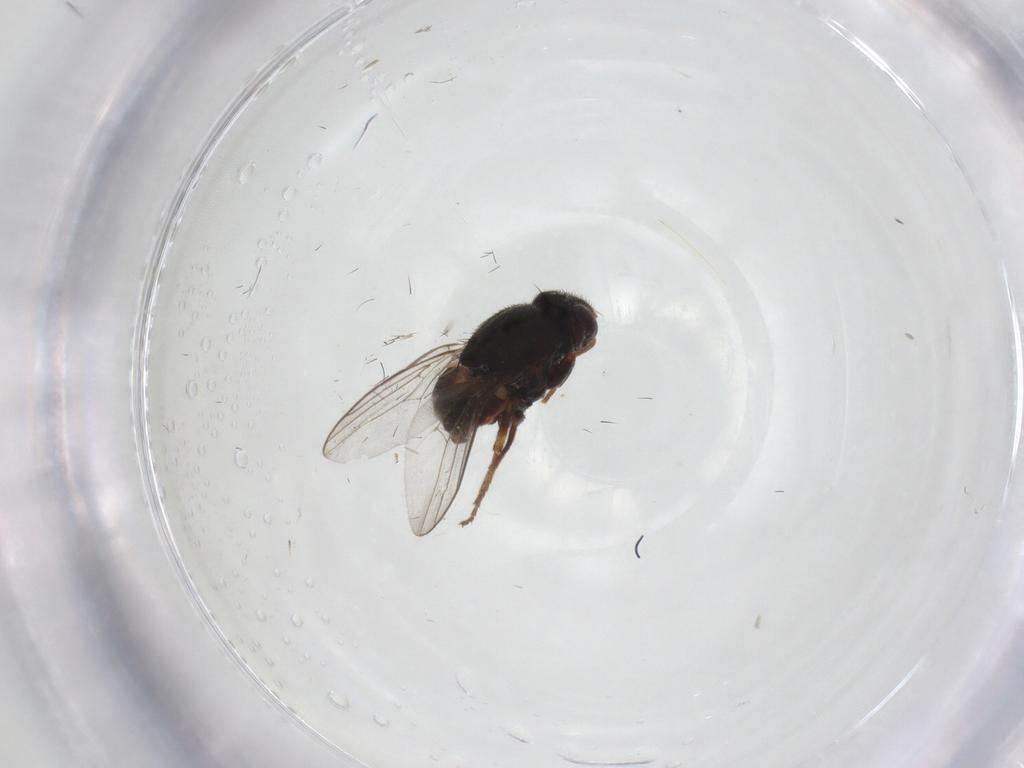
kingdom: Animalia
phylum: Arthropoda
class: Insecta
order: Diptera
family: Chloropidae
